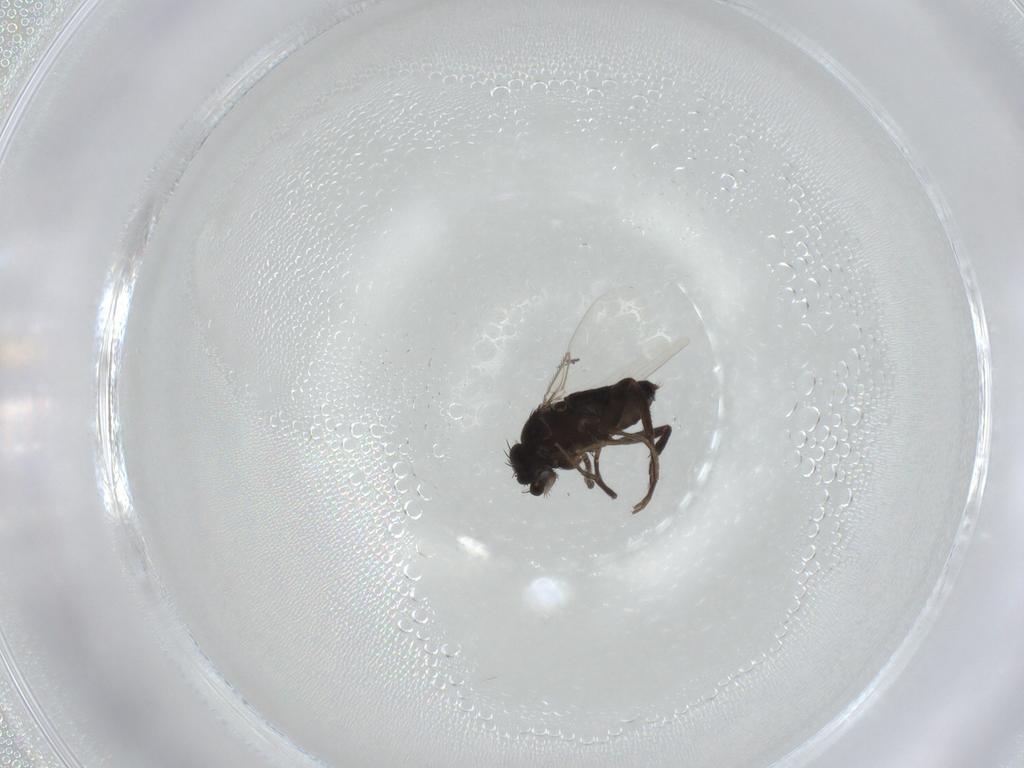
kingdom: Animalia
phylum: Arthropoda
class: Insecta
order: Diptera
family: Phoridae
